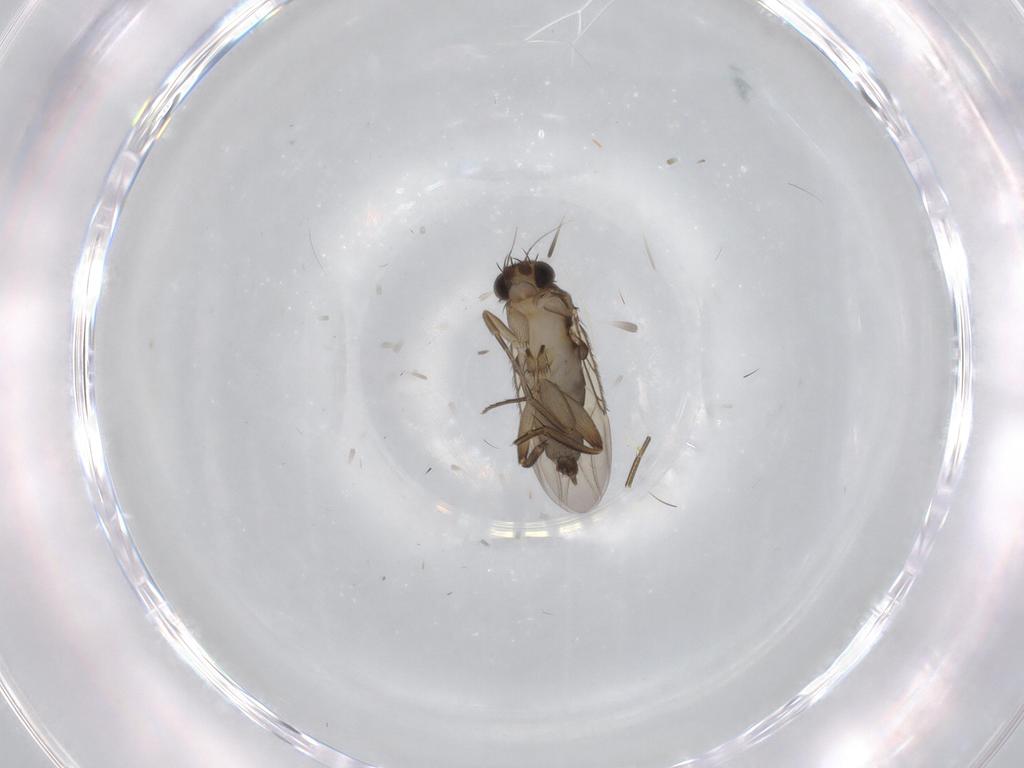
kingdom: Animalia
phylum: Arthropoda
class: Insecta
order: Diptera
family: Phoridae
